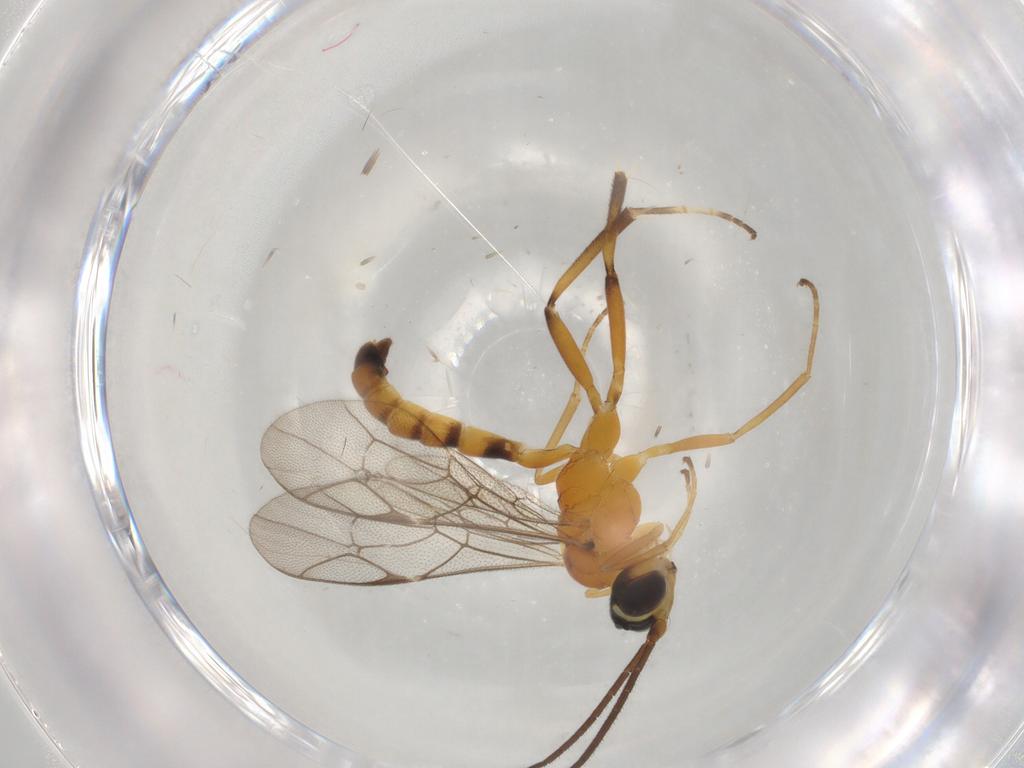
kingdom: Animalia
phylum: Arthropoda
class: Insecta
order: Hymenoptera
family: Ichneumonidae
